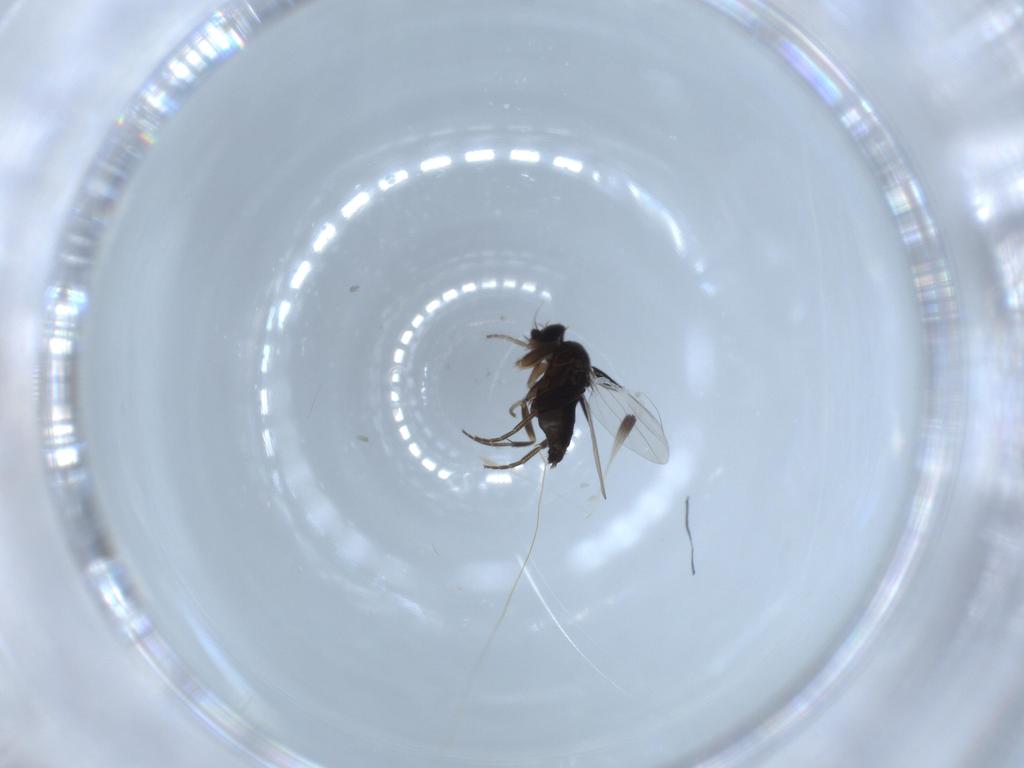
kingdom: Animalia
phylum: Arthropoda
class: Insecta
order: Diptera
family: Phoridae
